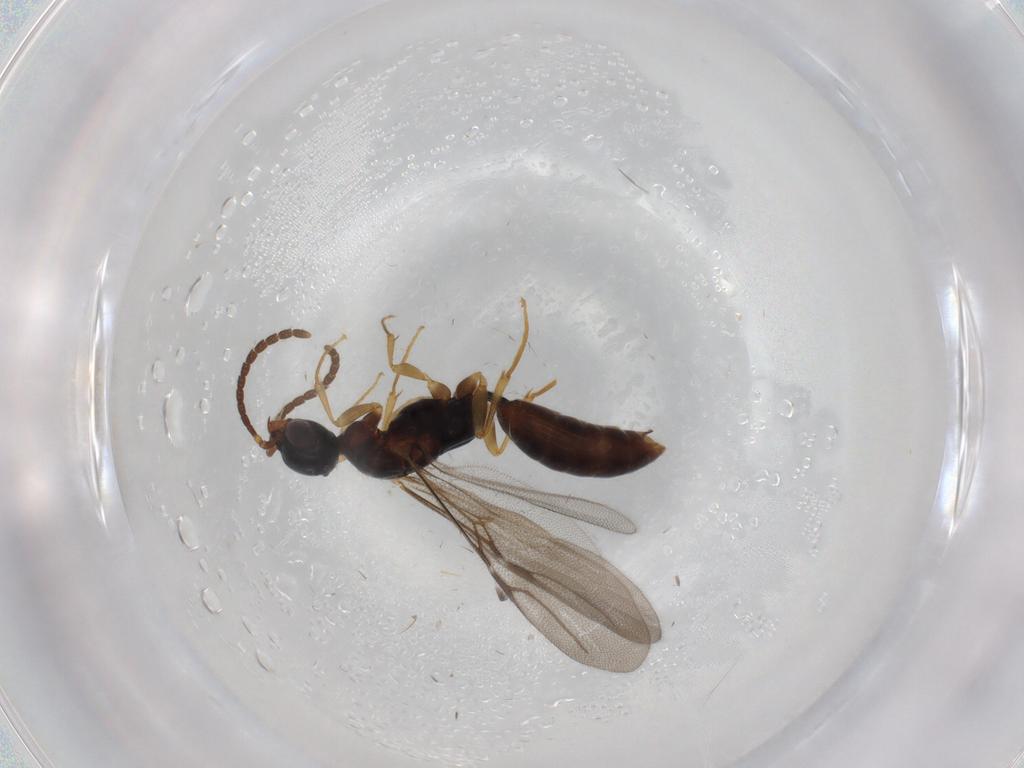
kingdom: Animalia
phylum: Arthropoda
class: Insecta
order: Hymenoptera
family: Bethylidae
